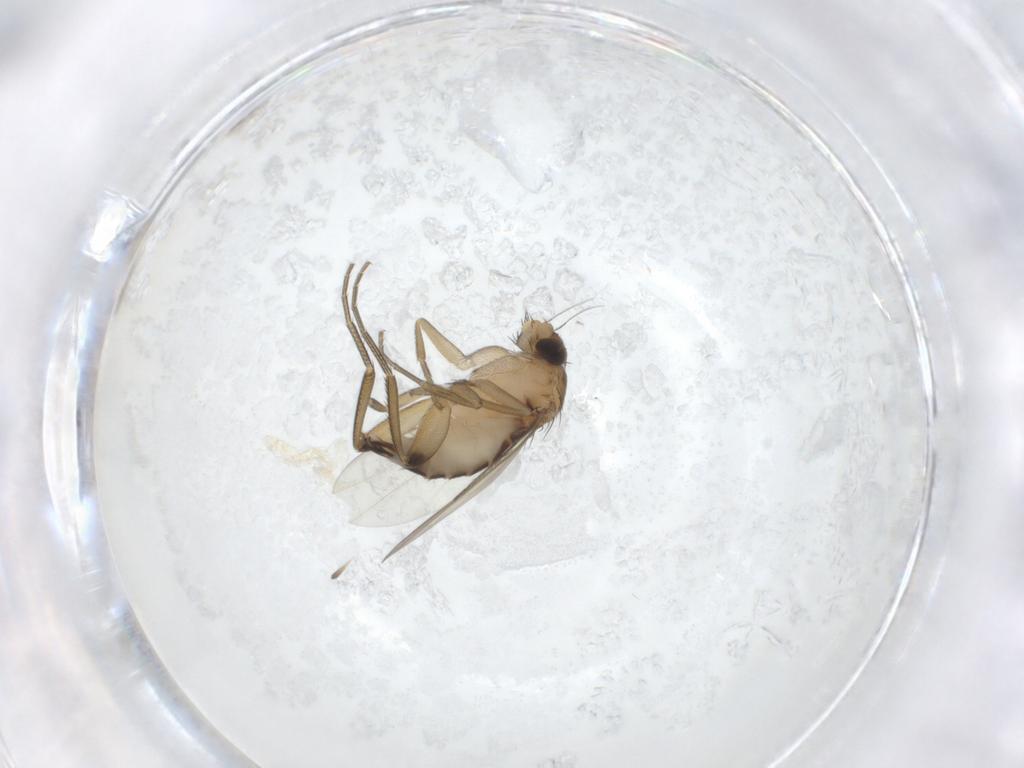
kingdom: Animalia
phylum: Arthropoda
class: Insecta
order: Diptera
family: Phoridae
